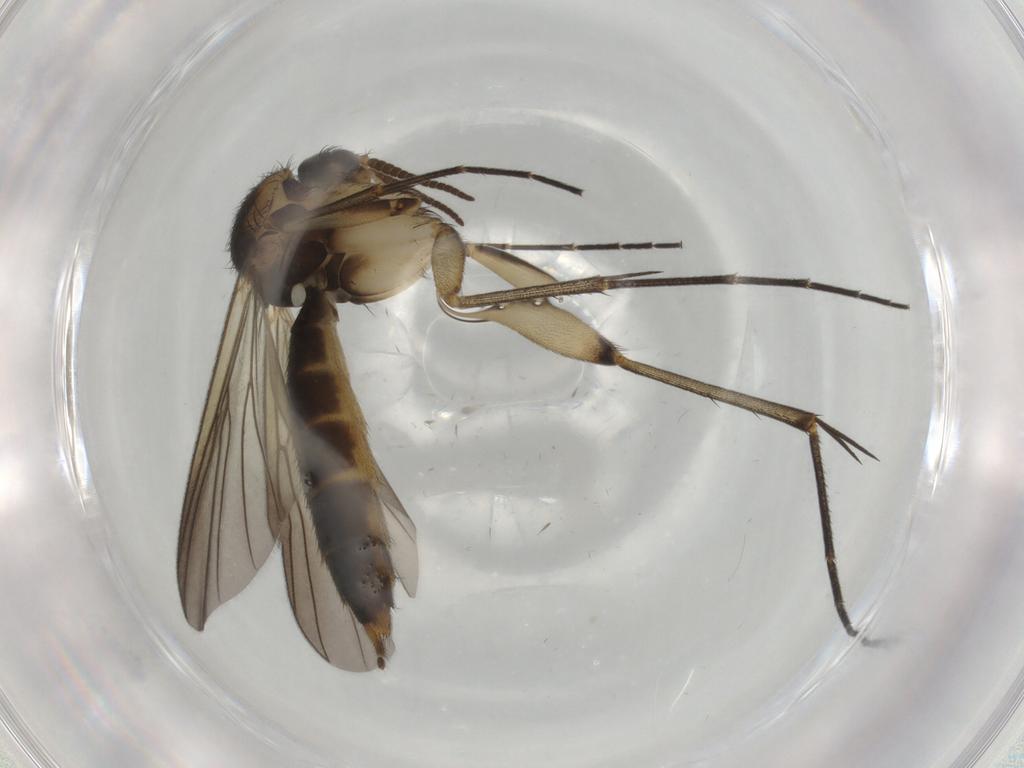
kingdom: Animalia
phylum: Arthropoda
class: Insecta
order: Diptera
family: Mycetophilidae
